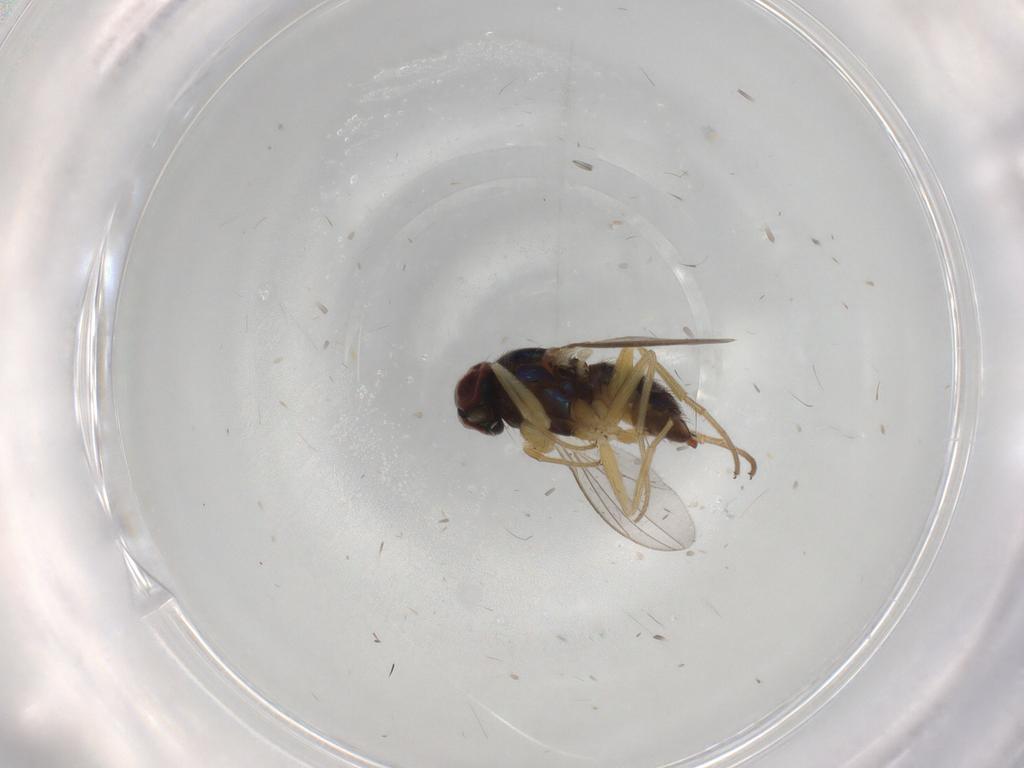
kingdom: Animalia
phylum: Arthropoda
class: Insecta
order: Diptera
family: Dolichopodidae
